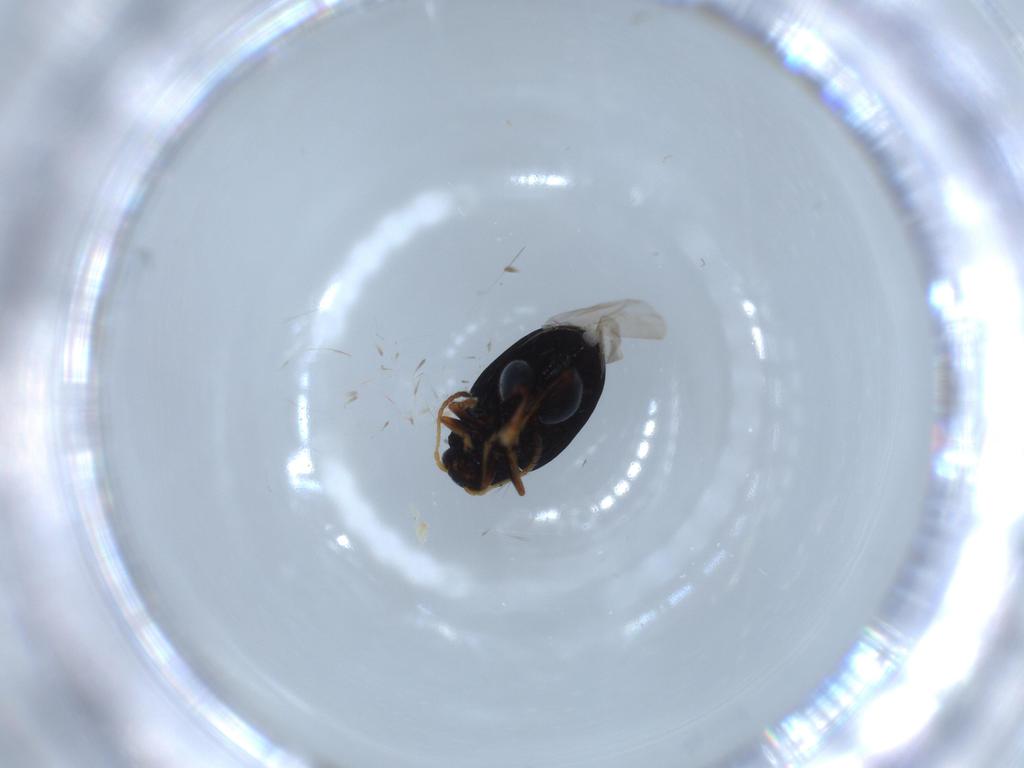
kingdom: Animalia
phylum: Arthropoda
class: Insecta
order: Coleoptera
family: Chrysomelidae
